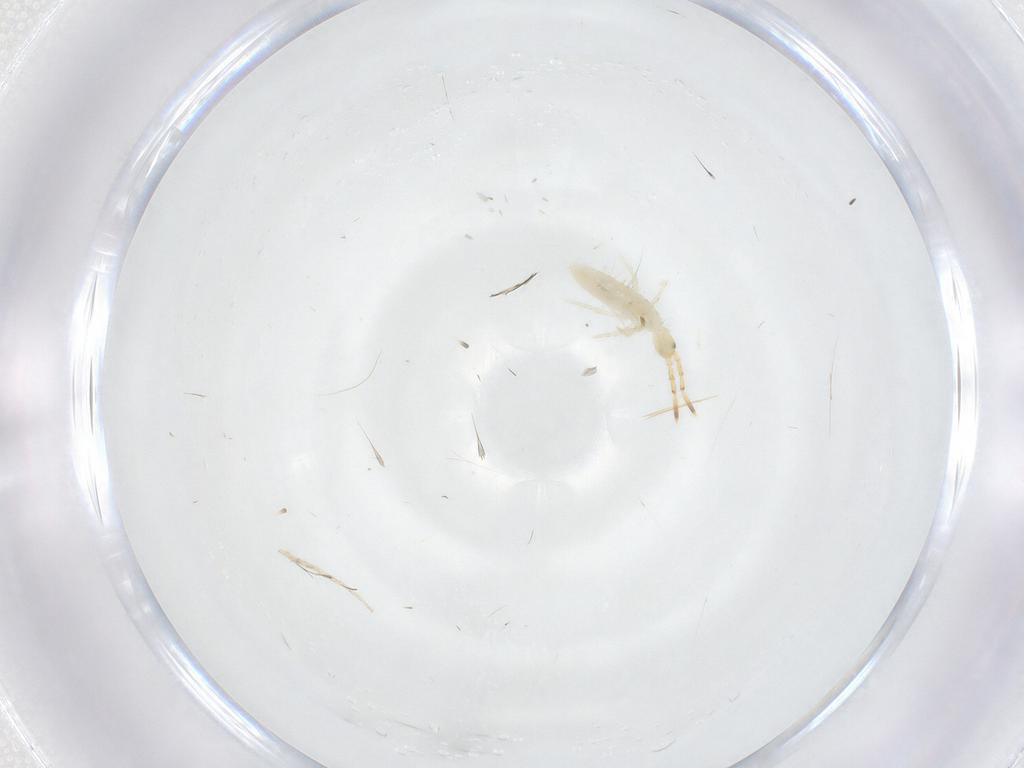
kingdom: Animalia
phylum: Arthropoda
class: Collembola
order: Entomobryomorpha
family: Entomobryidae
